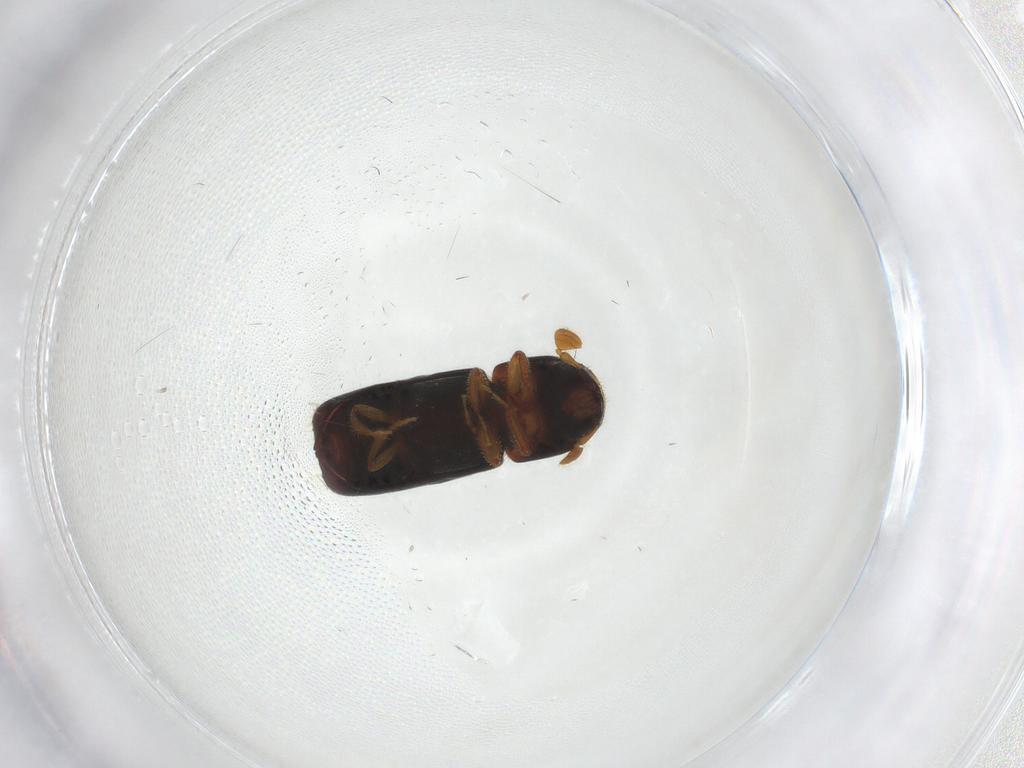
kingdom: Animalia
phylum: Arthropoda
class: Insecta
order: Coleoptera
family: Curculionidae
